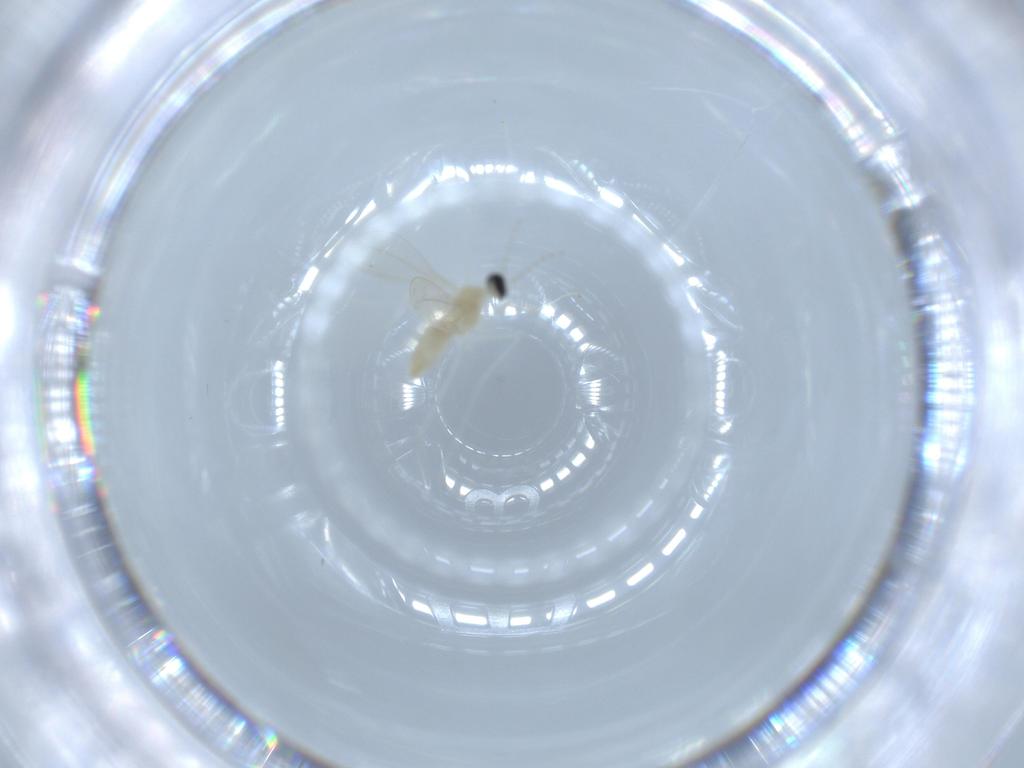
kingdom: Animalia
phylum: Arthropoda
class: Insecta
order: Diptera
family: Cecidomyiidae
